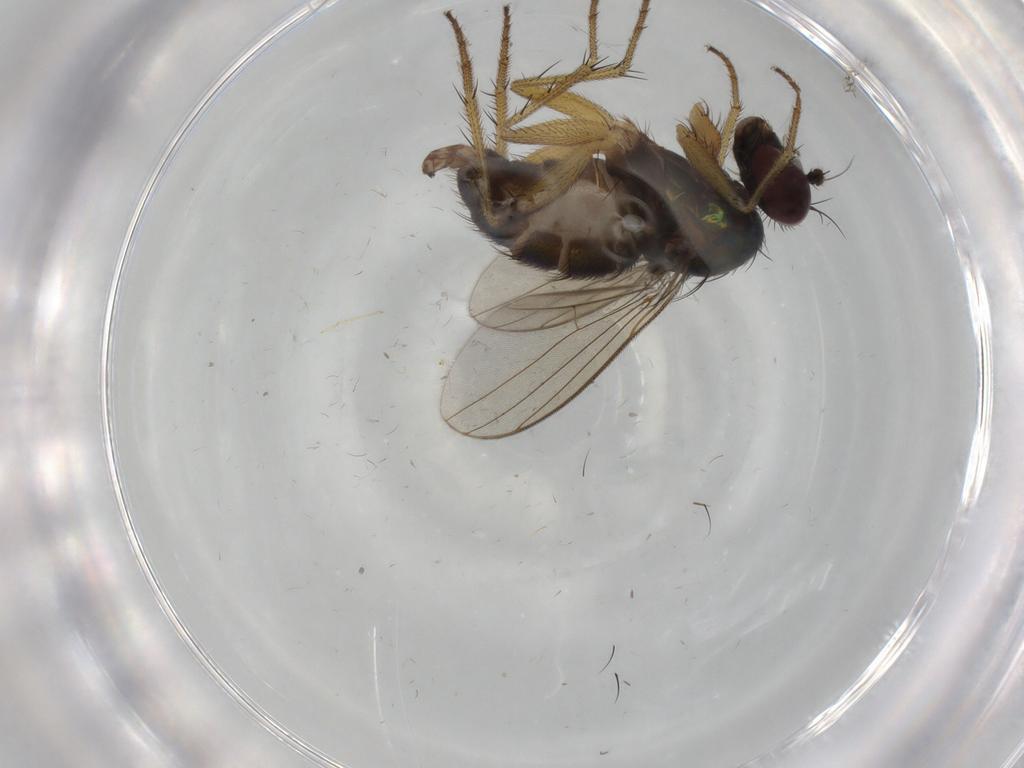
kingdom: Animalia
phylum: Arthropoda
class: Insecta
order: Diptera
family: Dolichopodidae
